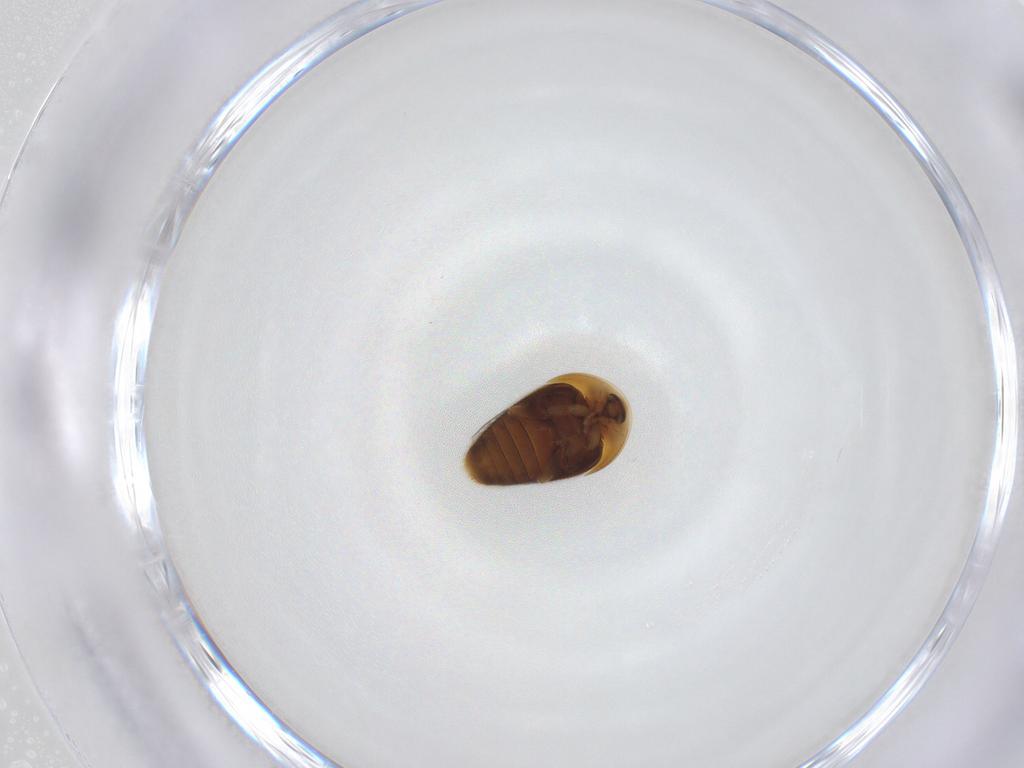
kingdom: Animalia
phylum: Arthropoda
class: Insecta
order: Coleoptera
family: Corylophidae
